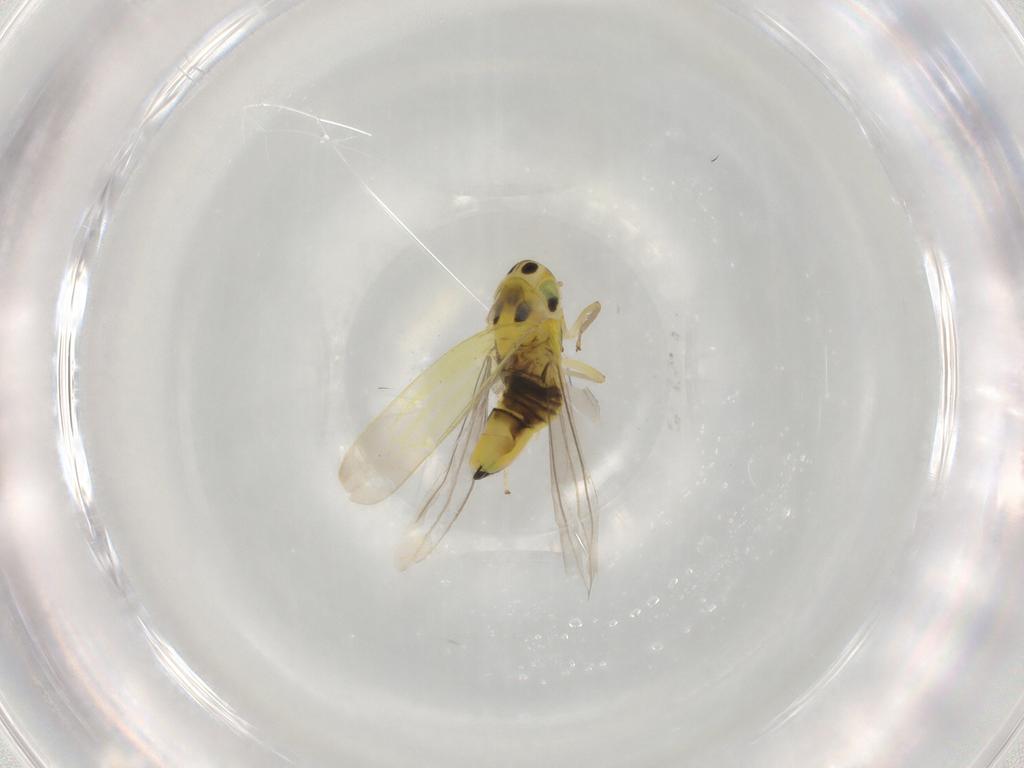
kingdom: Animalia
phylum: Arthropoda
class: Insecta
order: Hemiptera
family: Cicadellidae
